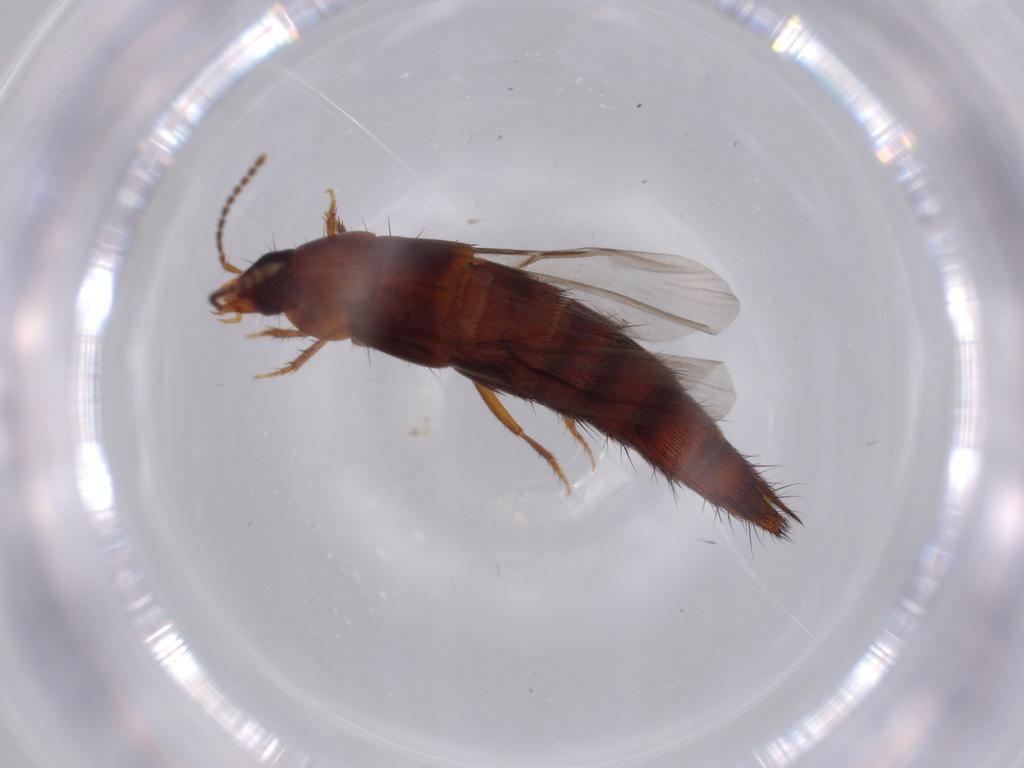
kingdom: Animalia
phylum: Arthropoda
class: Insecta
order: Coleoptera
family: Staphylinidae
